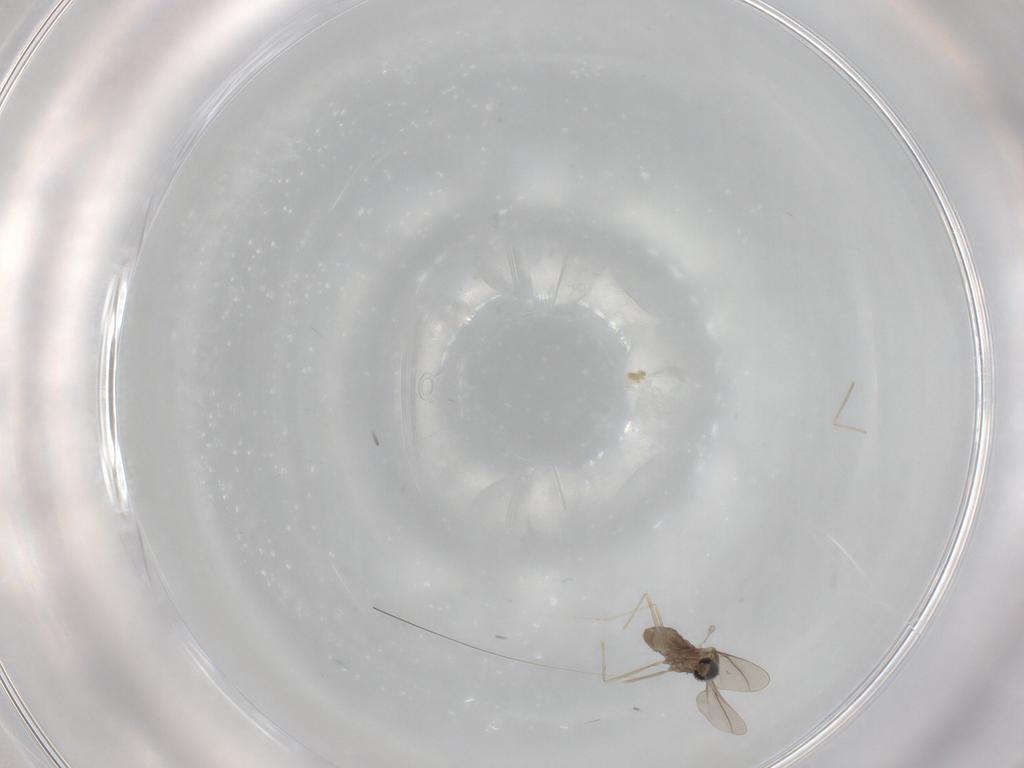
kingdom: Animalia
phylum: Arthropoda
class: Insecta
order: Diptera
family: Cecidomyiidae
